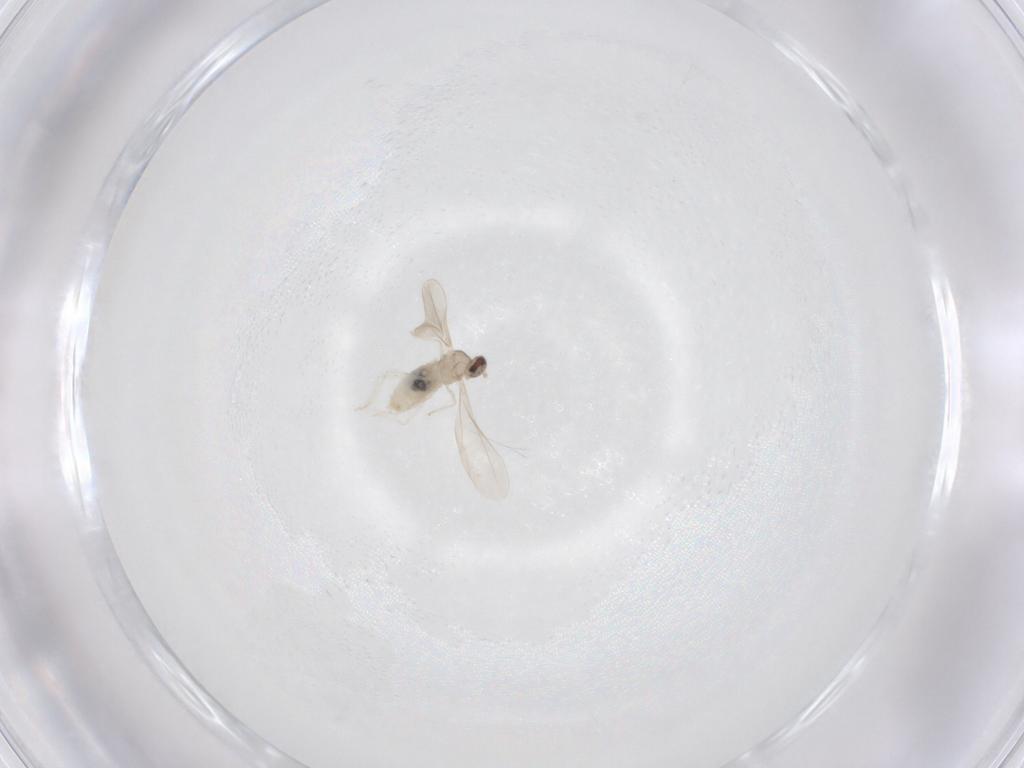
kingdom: Animalia
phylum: Arthropoda
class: Insecta
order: Diptera
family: Cecidomyiidae
